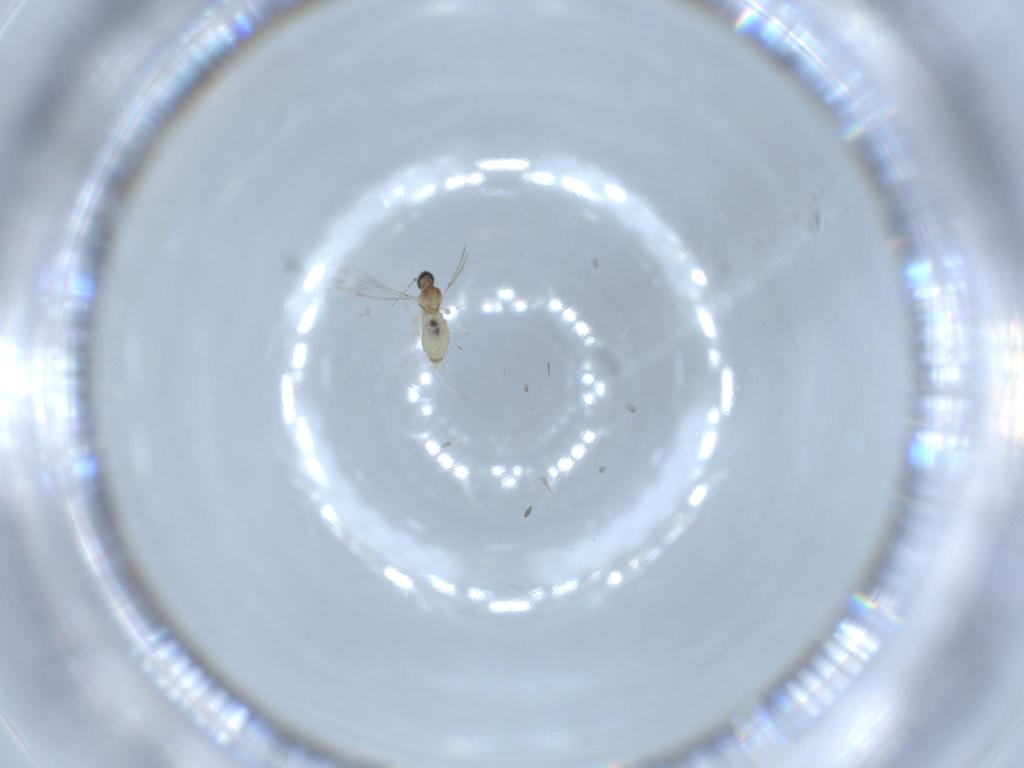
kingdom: Animalia
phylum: Arthropoda
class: Insecta
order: Diptera
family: Cecidomyiidae
